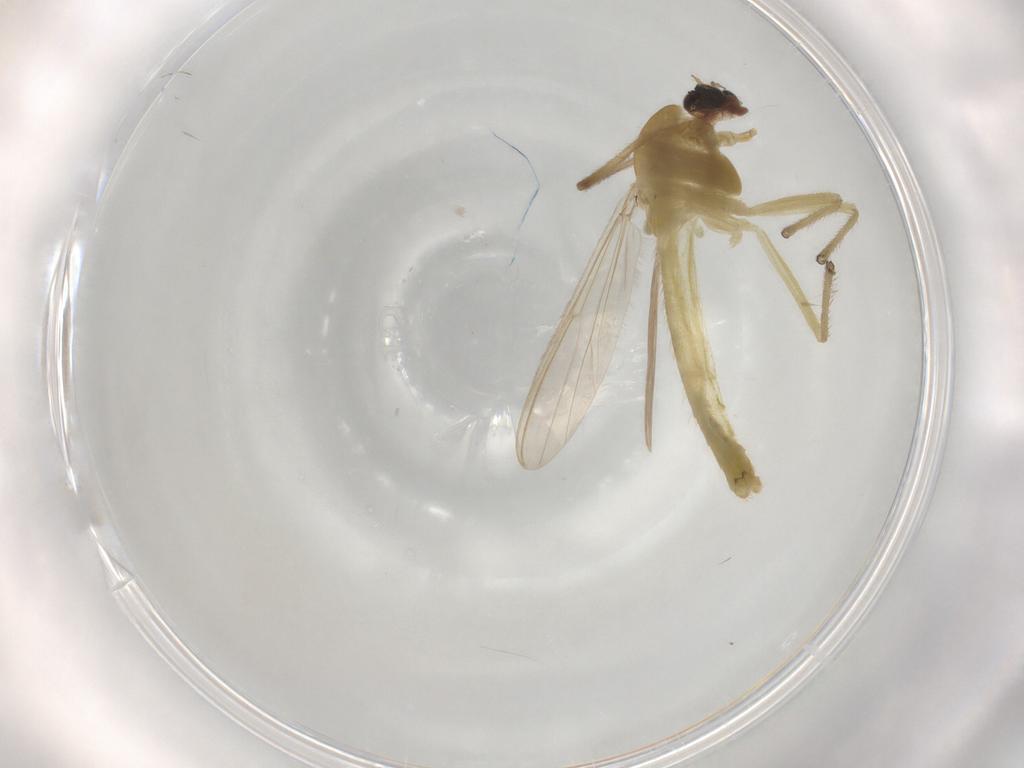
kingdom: Animalia
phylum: Arthropoda
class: Insecta
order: Diptera
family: Chironomidae
